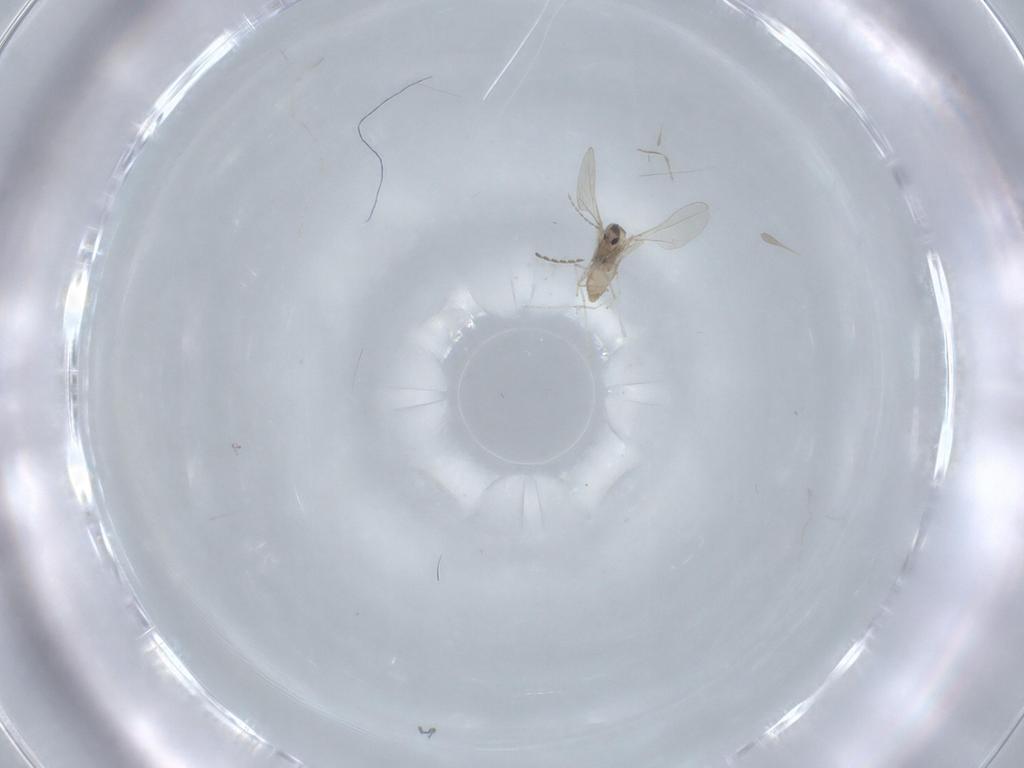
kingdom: Animalia
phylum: Arthropoda
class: Insecta
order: Diptera
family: Cecidomyiidae
